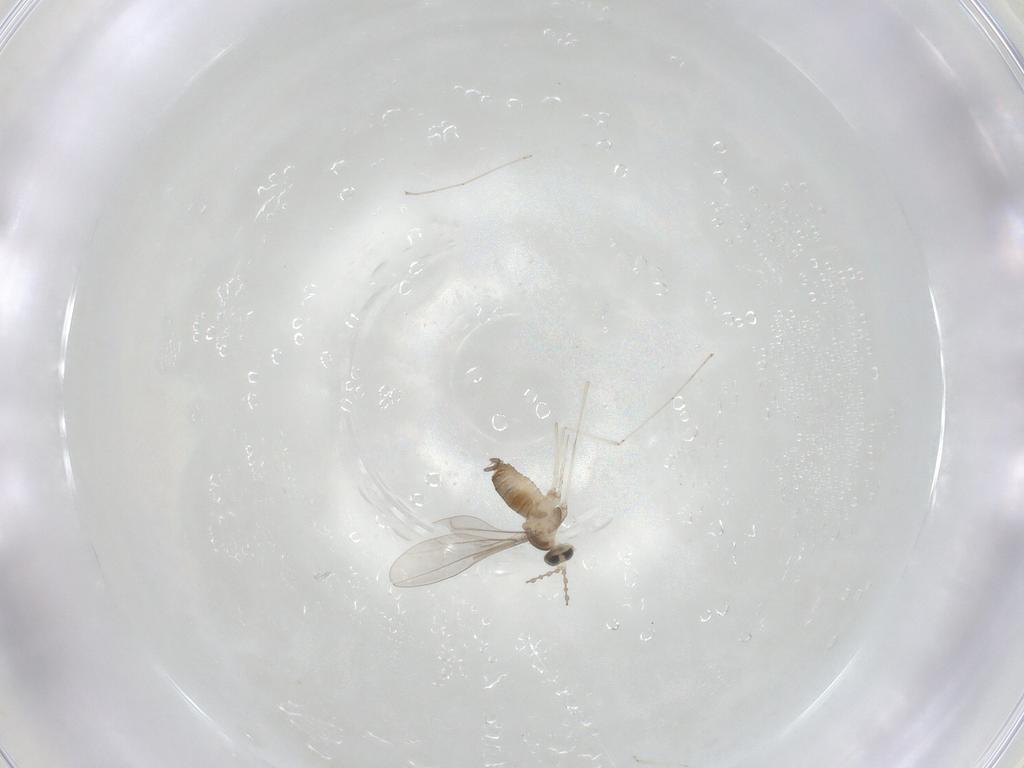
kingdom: Animalia
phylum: Arthropoda
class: Insecta
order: Diptera
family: Cecidomyiidae
